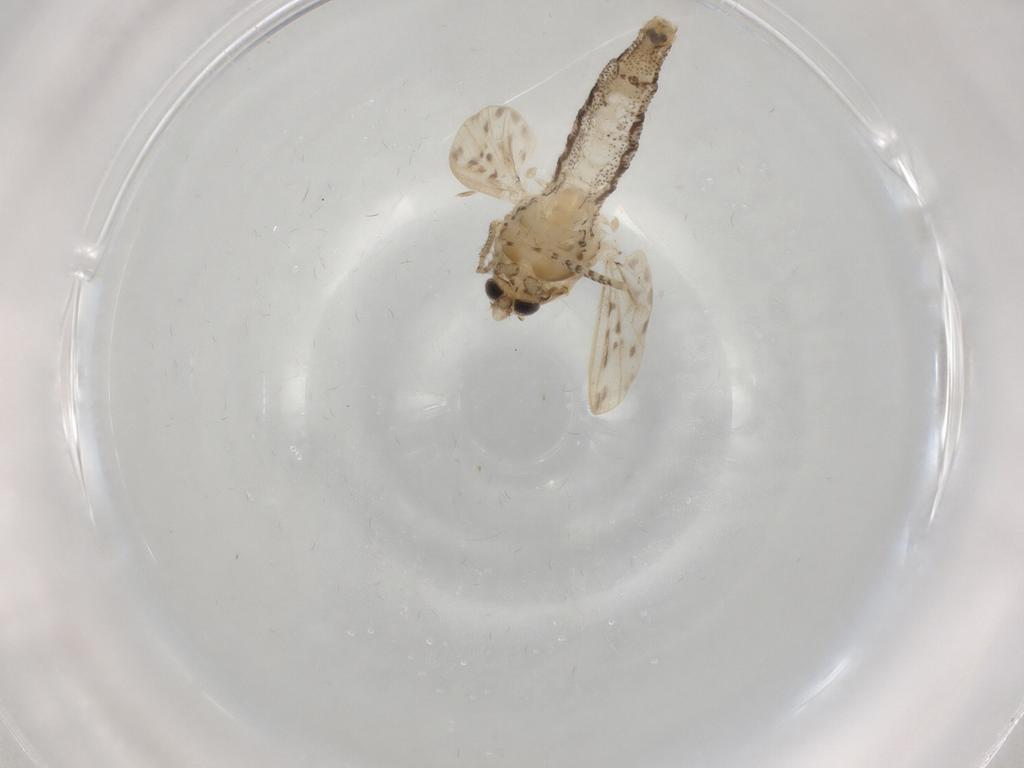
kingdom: Animalia
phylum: Arthropoda
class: Insecta
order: Diptera
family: Chaoboridae
